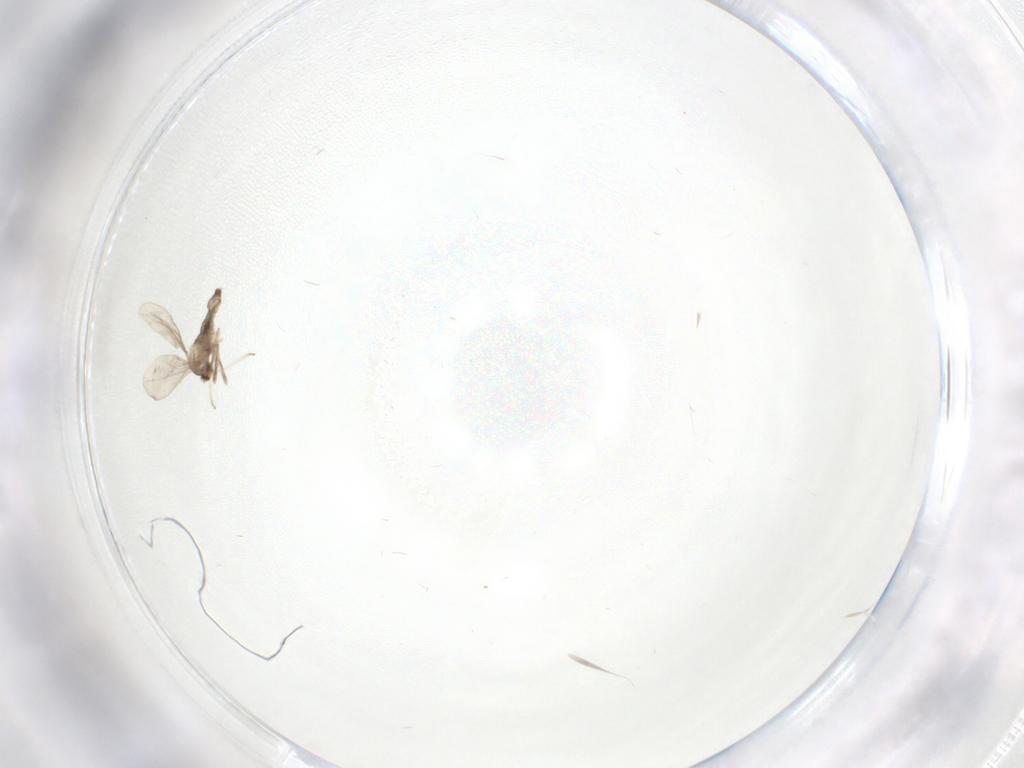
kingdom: Animalia
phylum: Arthropoda
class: Insecta
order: Diptera
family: Cecidomyiidae
